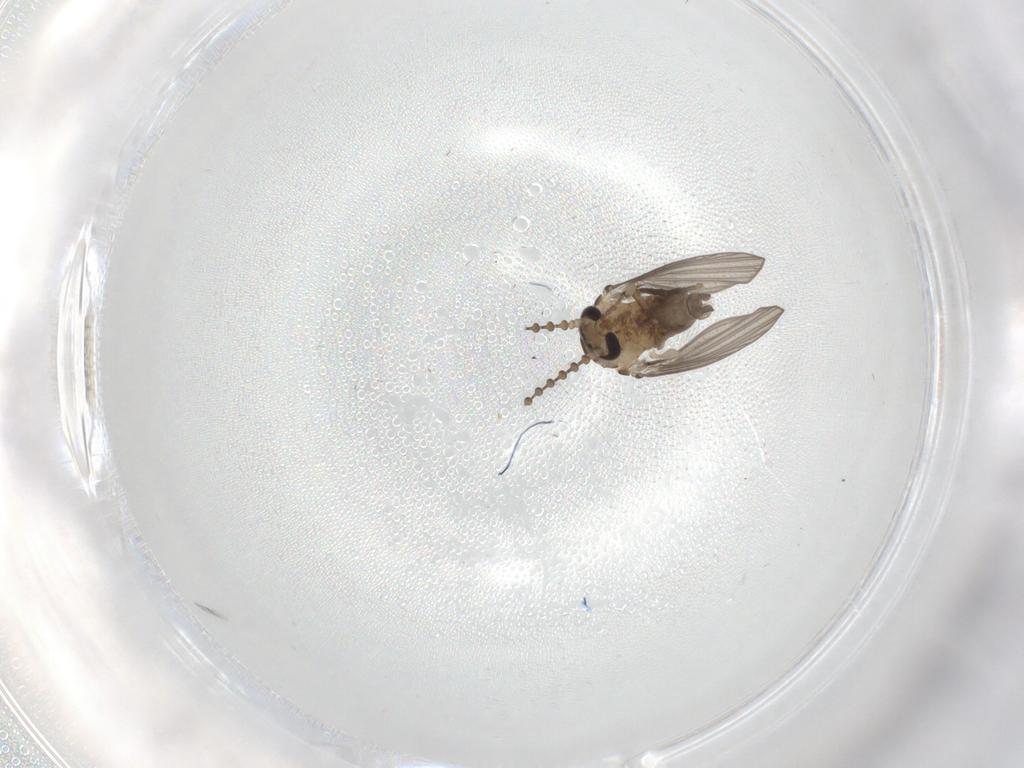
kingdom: Animalia
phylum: Arthropoda
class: Insecta
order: Diptera
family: Cecidomyiidae
